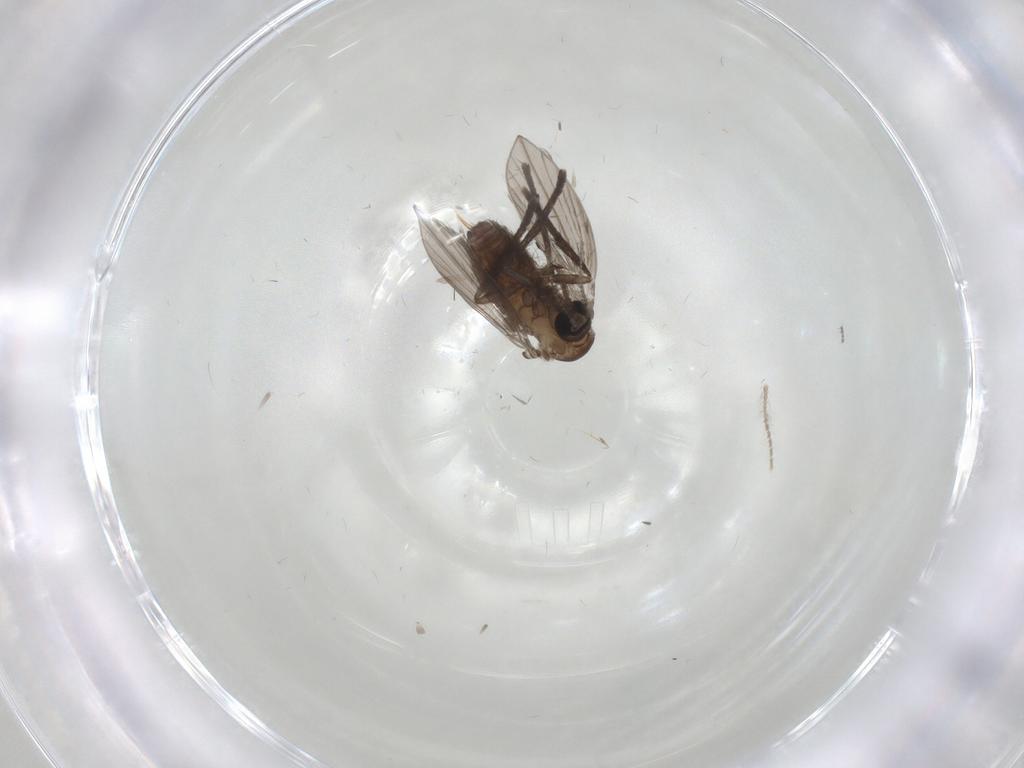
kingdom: Animalia
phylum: Arthropoda
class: Insecta
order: Diptera
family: Psychodidae
